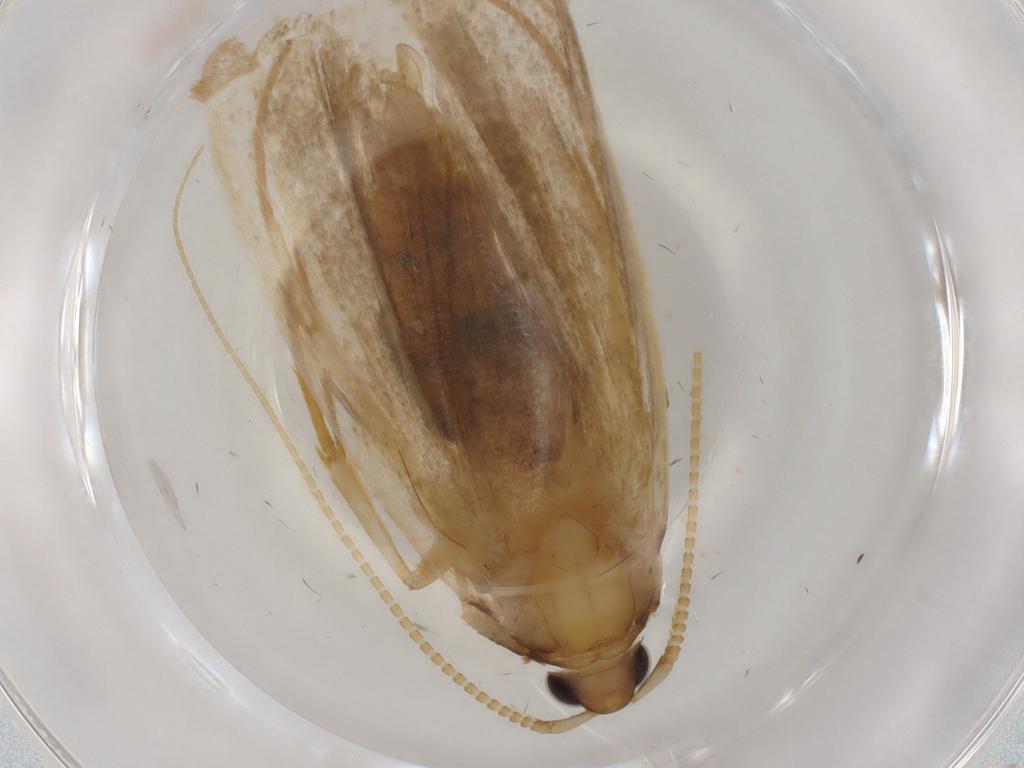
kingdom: Animalia
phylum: Arthropoda
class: Insecta
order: Lepidoptera
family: Lecithoceridae
